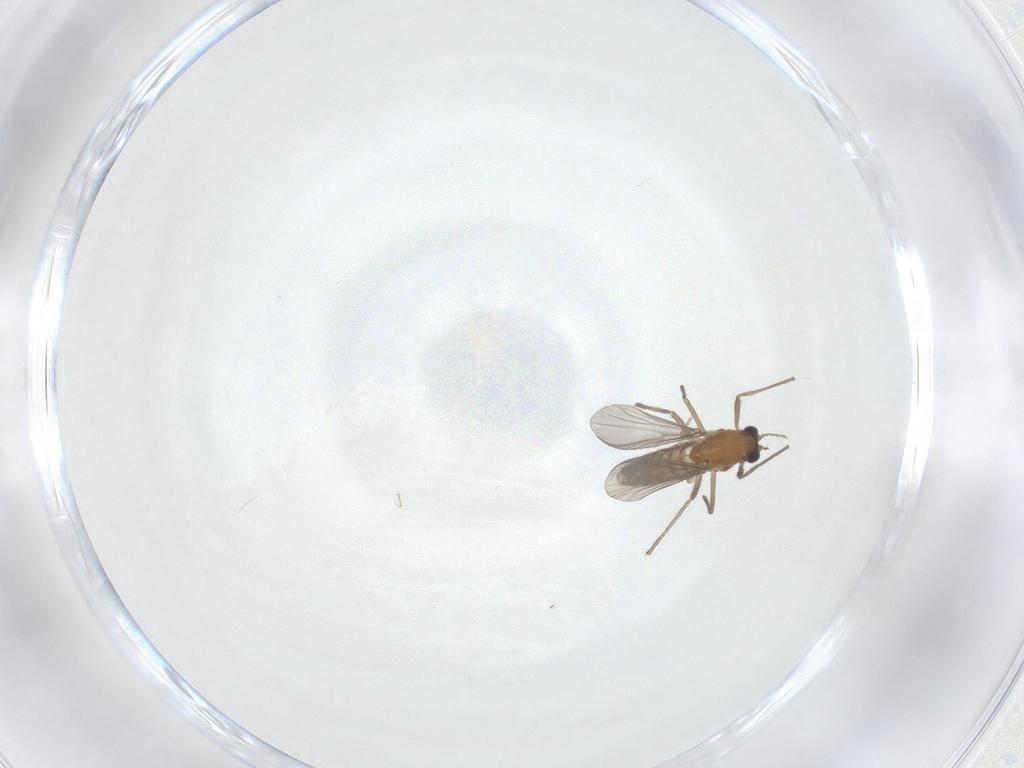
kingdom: Animalia
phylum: Arthropoda
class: Insecta
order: Diptera
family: Chironomidae
